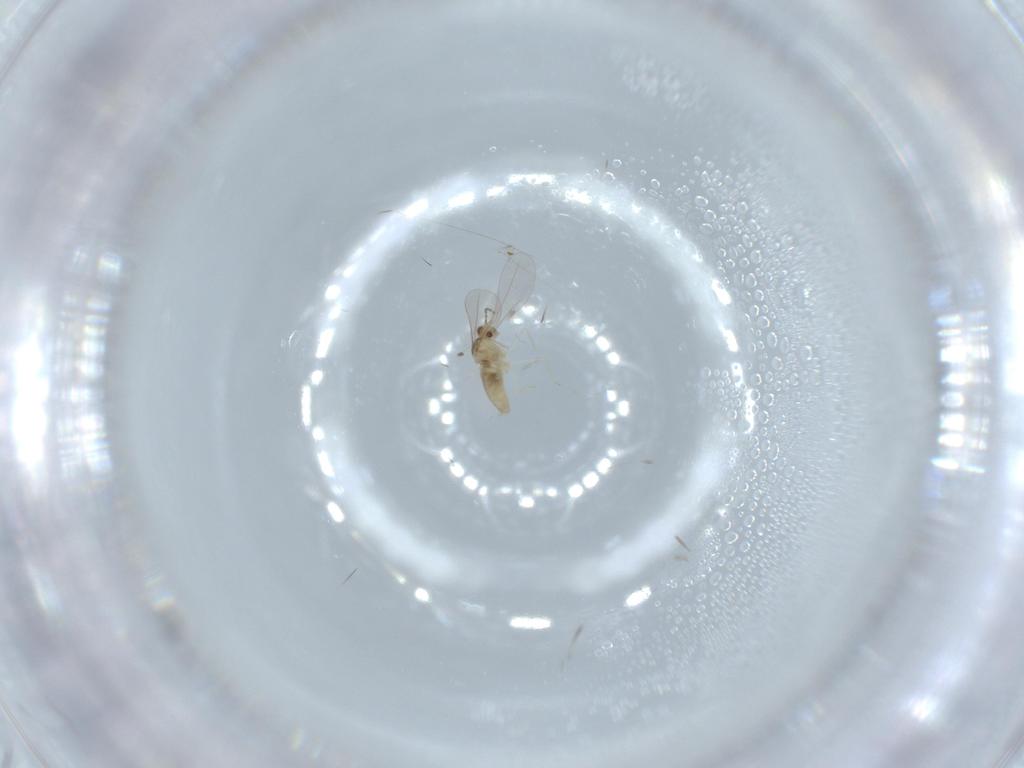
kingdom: Animalia
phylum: Arthropoda
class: Insecta
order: Diptera
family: Cecidomyiidae
